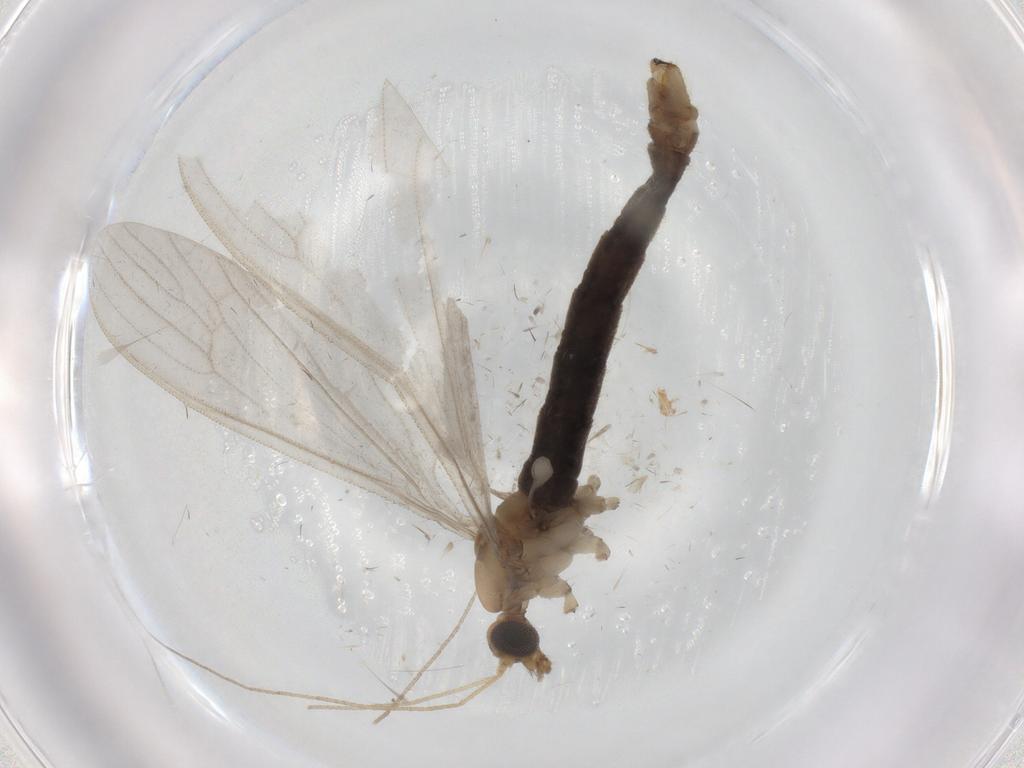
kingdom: Animalia
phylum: Arthropoda
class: Insecta
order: Diptera
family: Limoniidae
